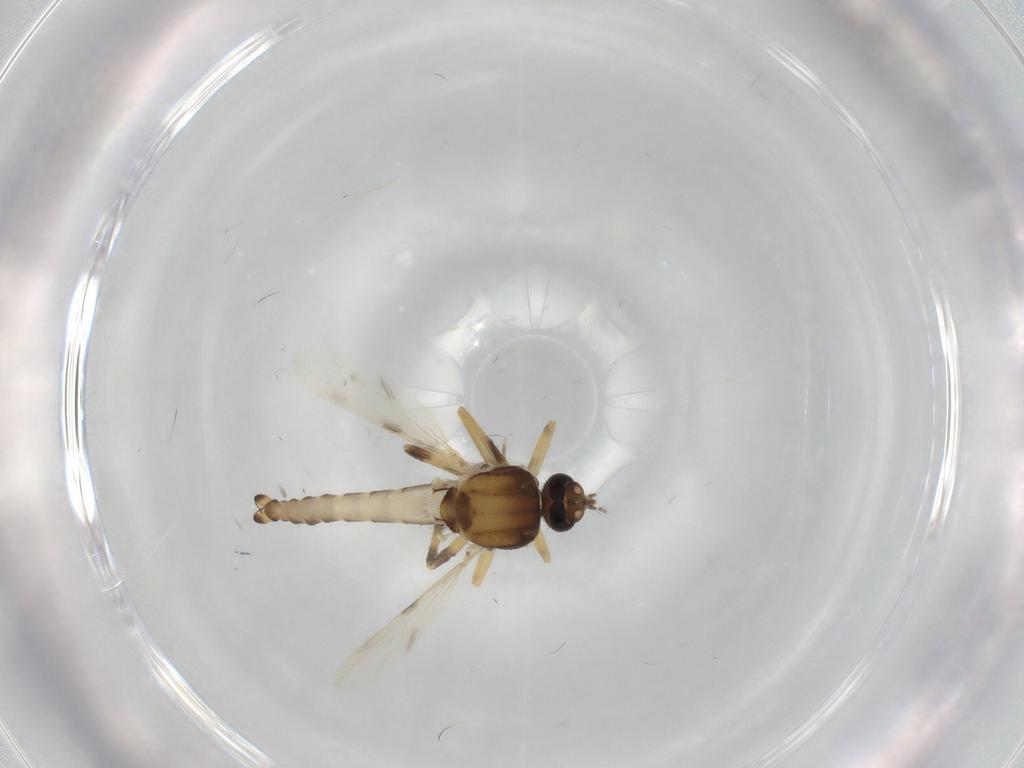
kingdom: Animalia
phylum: Arthropoda
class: Insecta
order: Diptera
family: Ceratopogonidae
